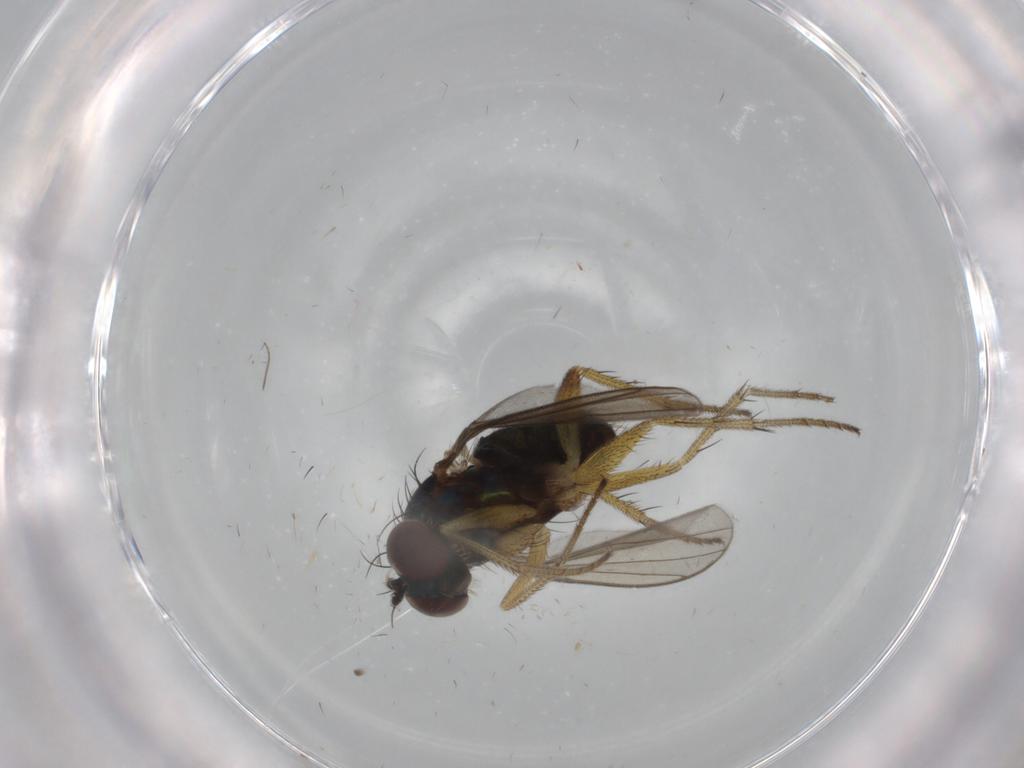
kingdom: Animalia
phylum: Arthropoda
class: Insecta
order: Diptera
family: Dolichopodidae
